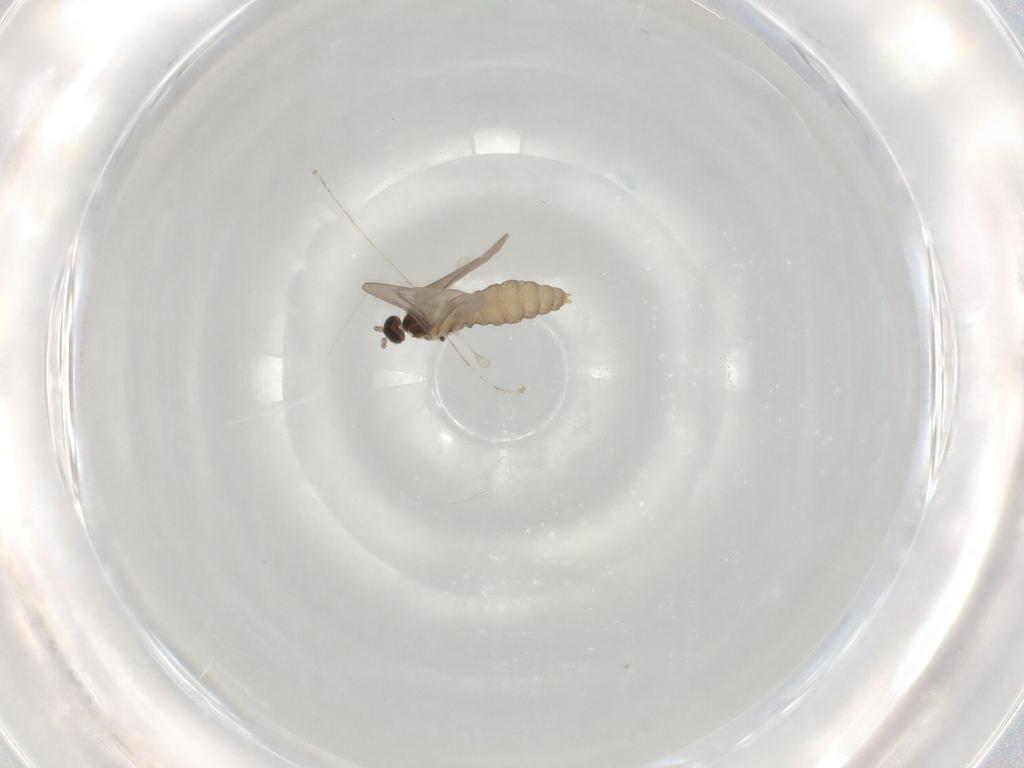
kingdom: Animalia
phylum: Arthropoda
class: Insecta
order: Diptera
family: Cecidomyiidae
